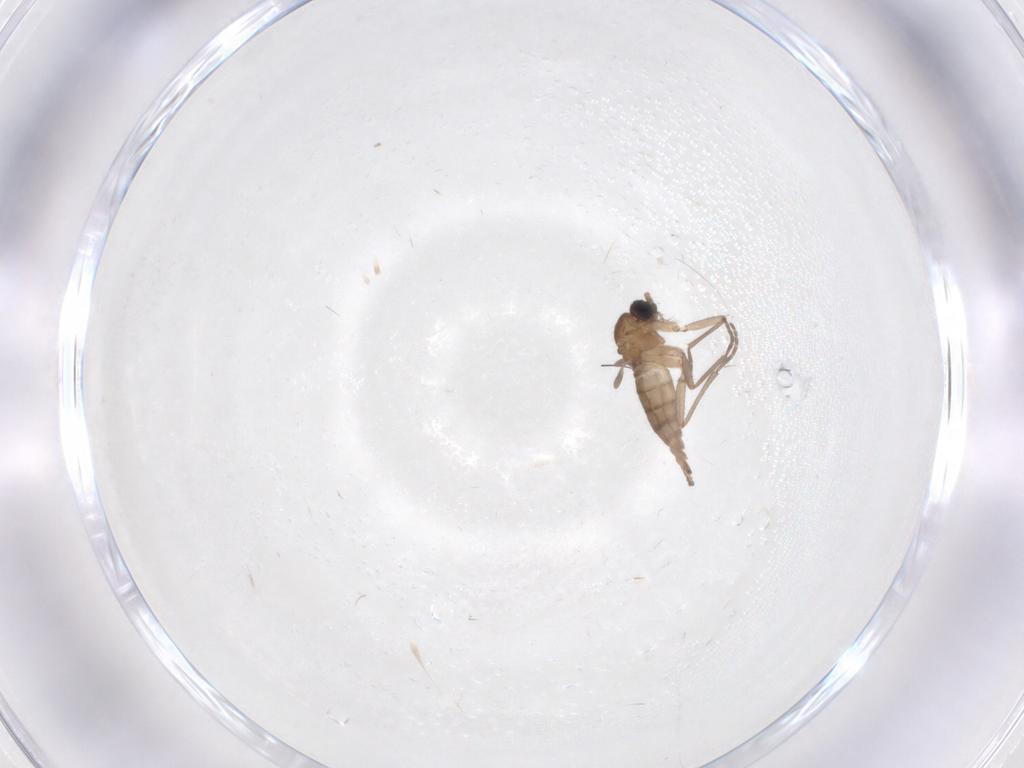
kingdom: Animalia
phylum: Arthropoda
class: Insecta
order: Diptera
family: Sciaridae
